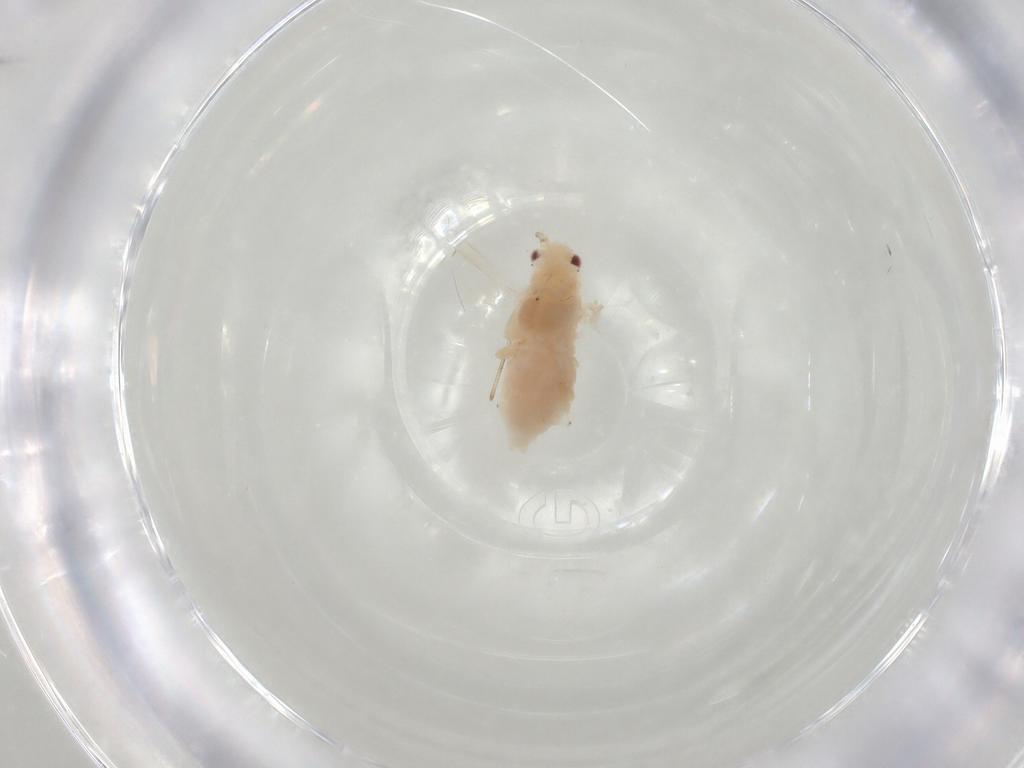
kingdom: Animalia
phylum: Arthropoda
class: Insecta
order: Hemiptera
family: Aphididae
